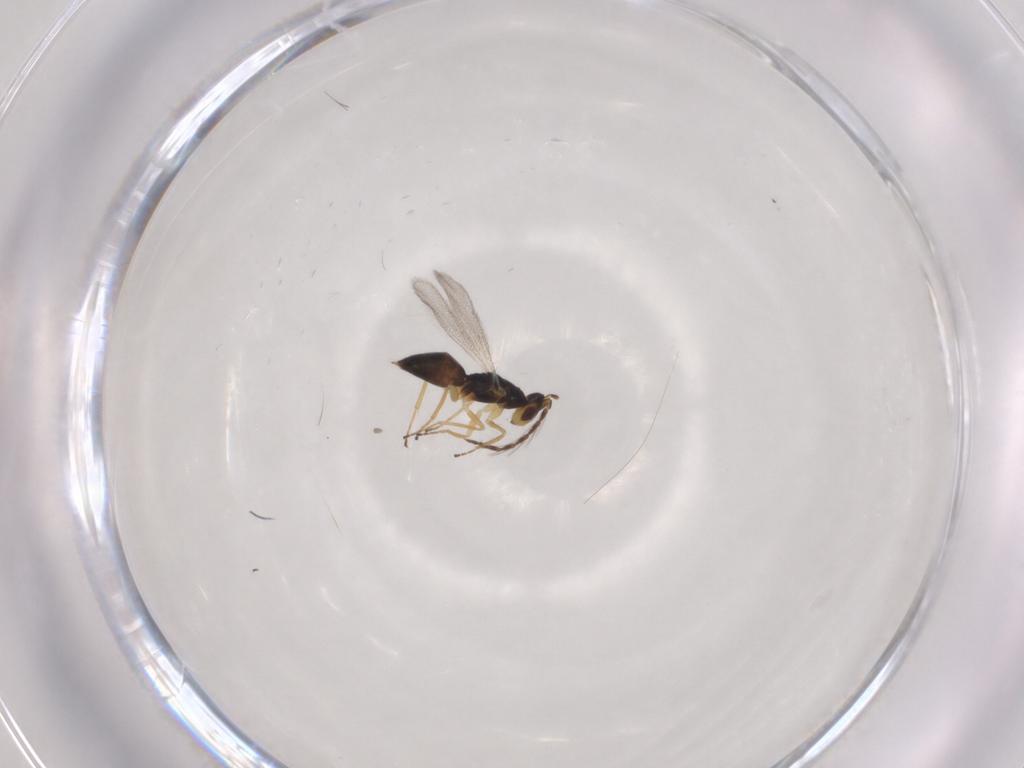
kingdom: Animalia
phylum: Arthropoda
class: Insecta
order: Hymenoptera
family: Eulophidae
